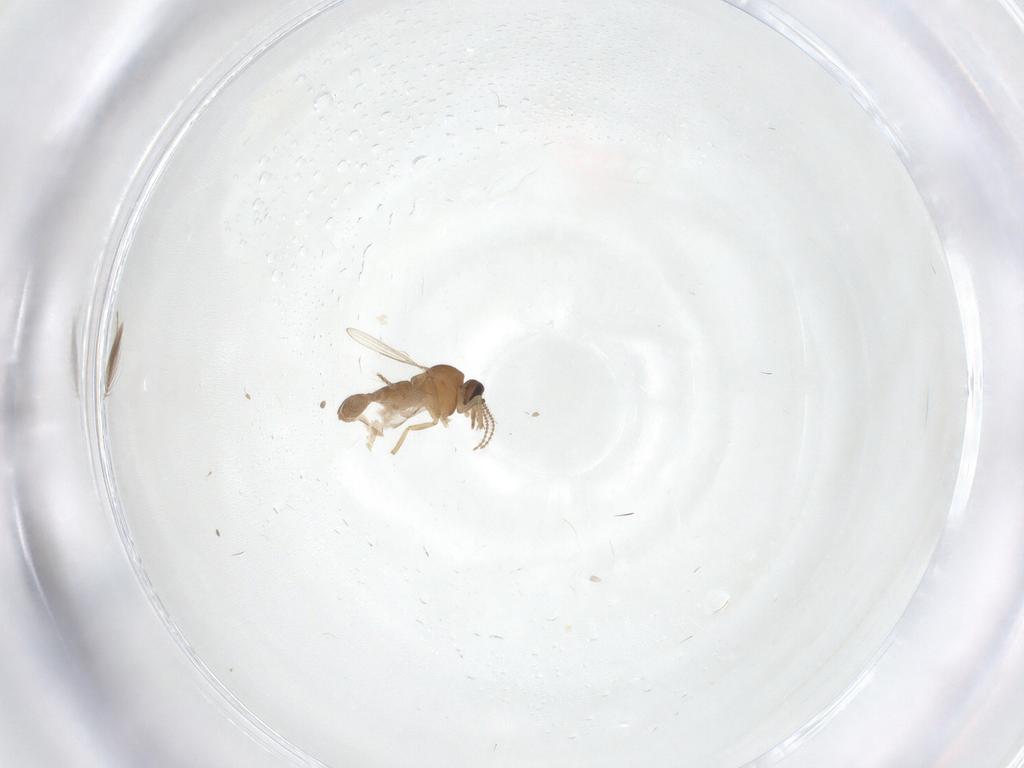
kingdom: Animalia
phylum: Arthropoda
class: Insecta
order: Diptera
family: Ceratopogonidae
